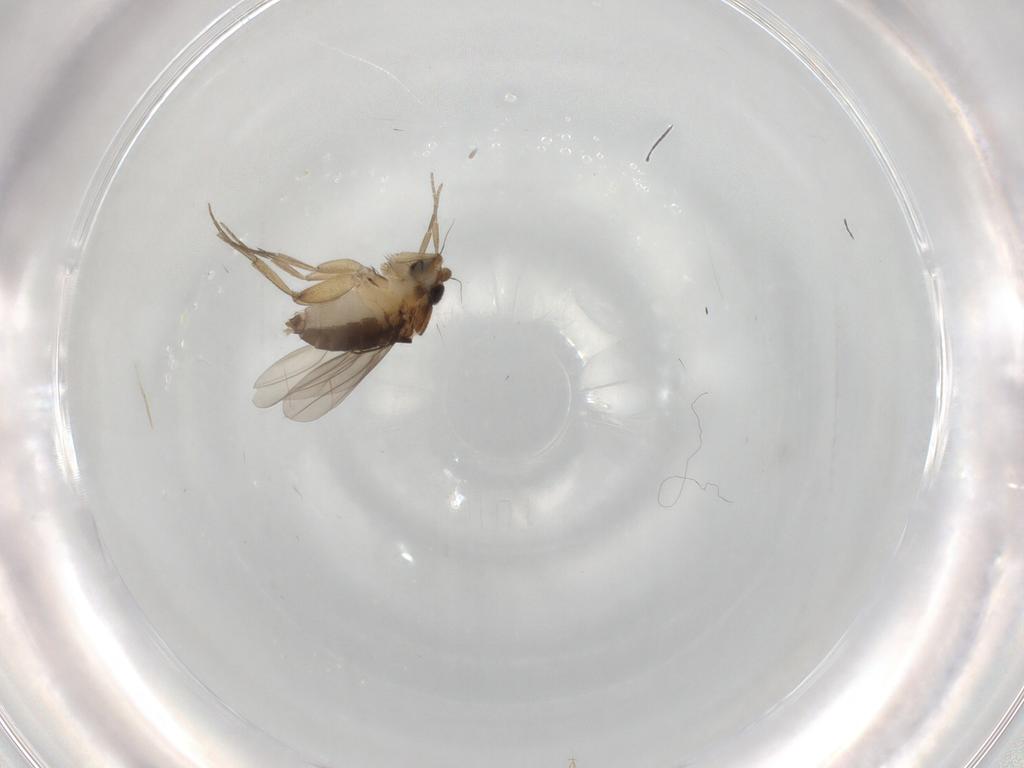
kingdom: Animalia
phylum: Arthropoda
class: Insecta
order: Diptera
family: Phoridae
